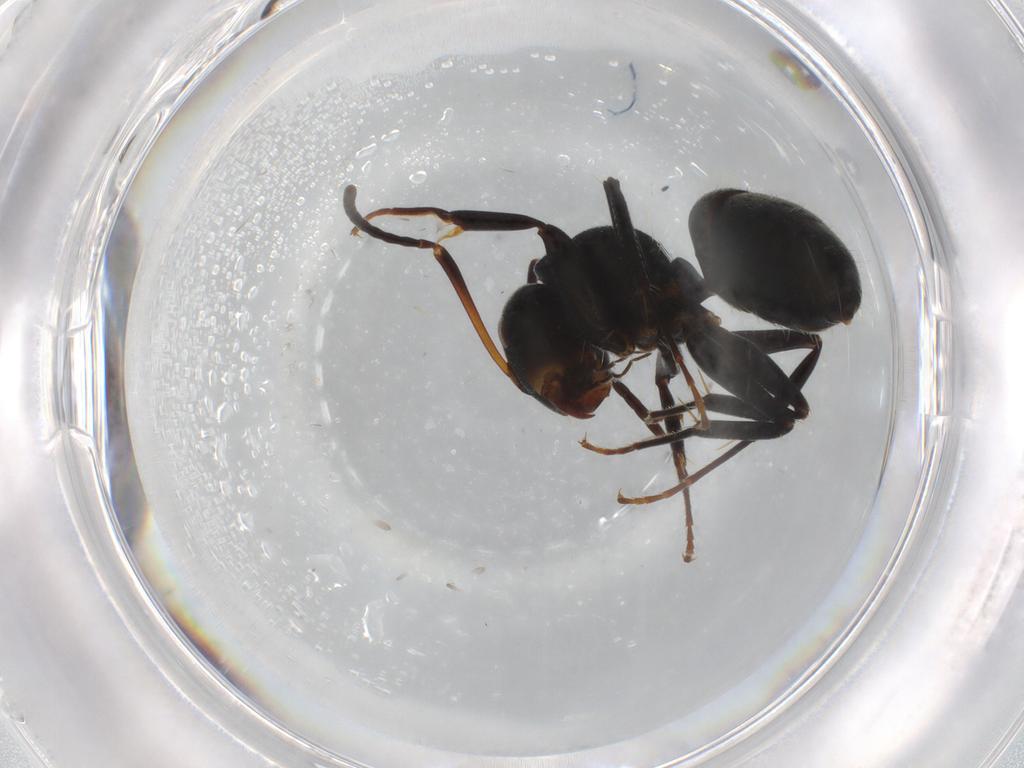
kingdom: Animalia
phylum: Arthropoda
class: Insecta
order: Hymenoptera
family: Formicidae
